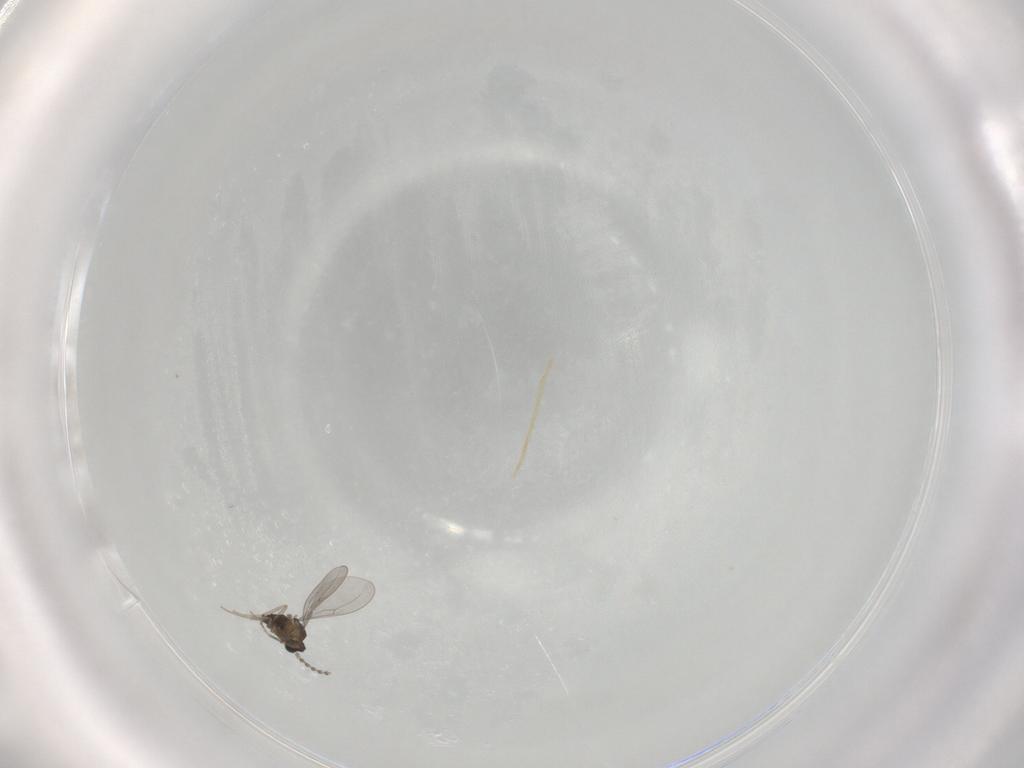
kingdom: Animalia
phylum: Arthropoda
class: Insecta
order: Diptera
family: Cecidomyiidae
